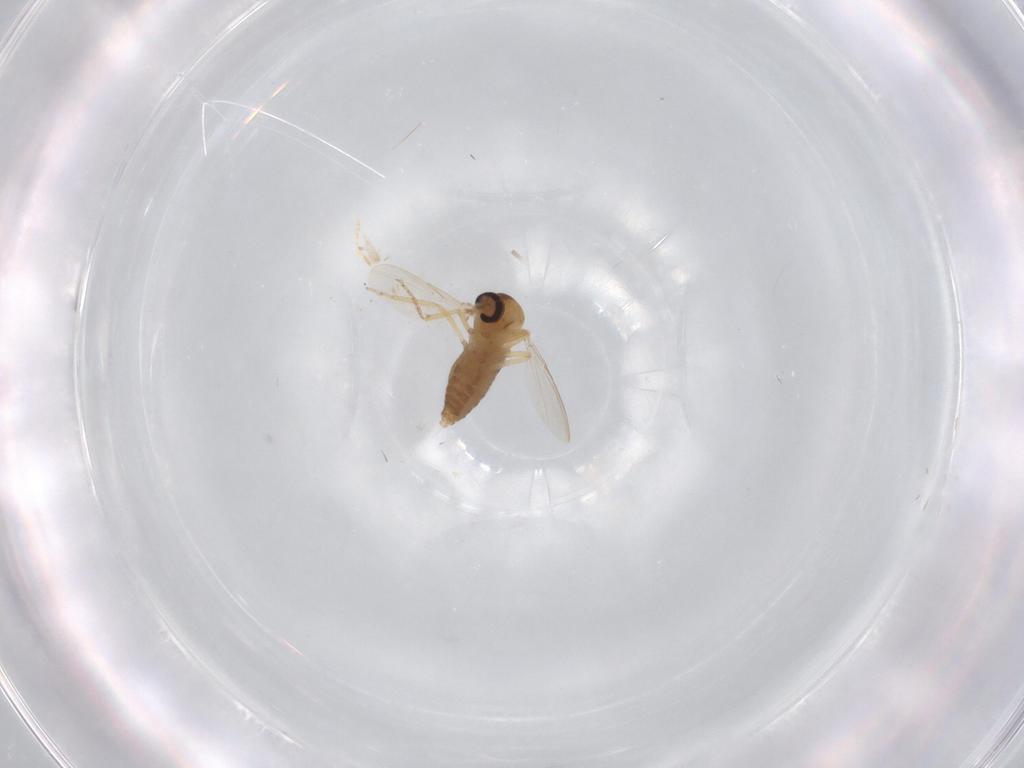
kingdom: Animalia
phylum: Arthropoda
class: Insecta
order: Diptera
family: Ceratopogonidae
